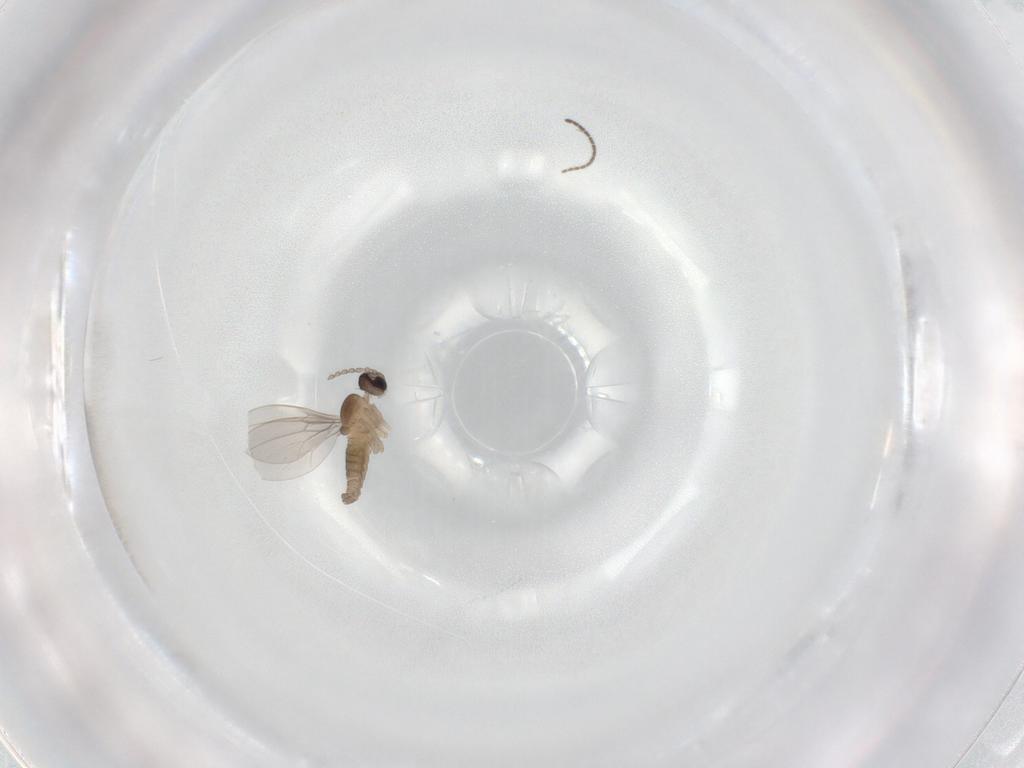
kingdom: Animalia
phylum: Arthropoda
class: Insecta
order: Diptera
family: Cecidomyiidae
